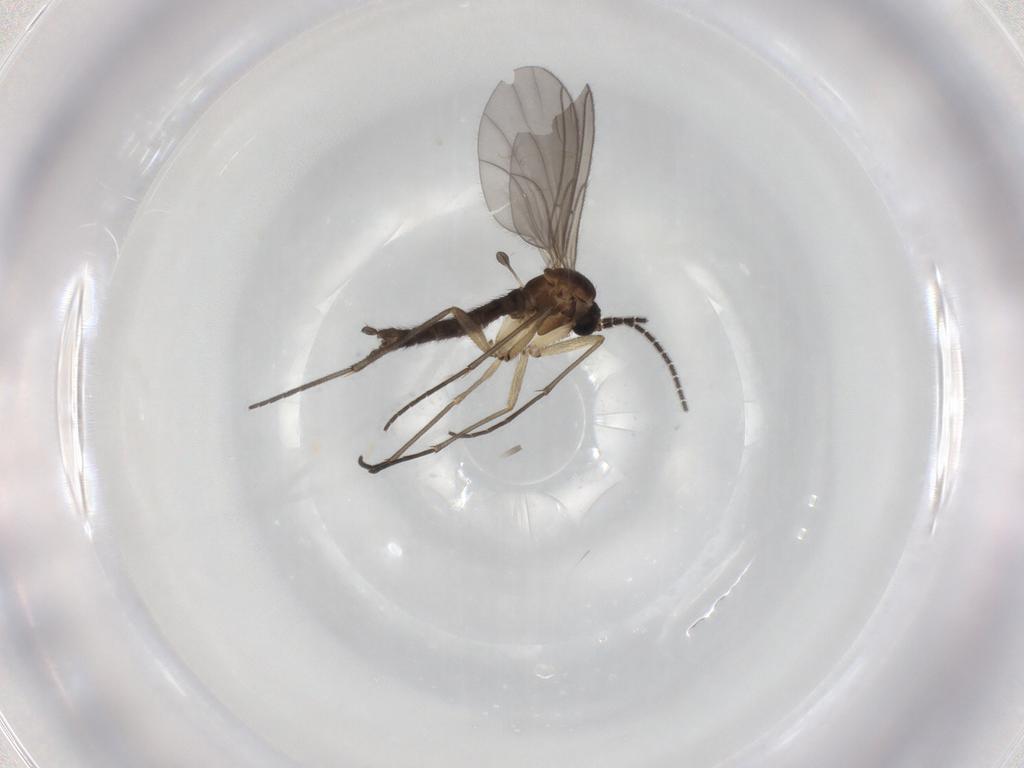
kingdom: Animalia
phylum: Arthropoda
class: Insecta
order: Diptera
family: Sciaridae
